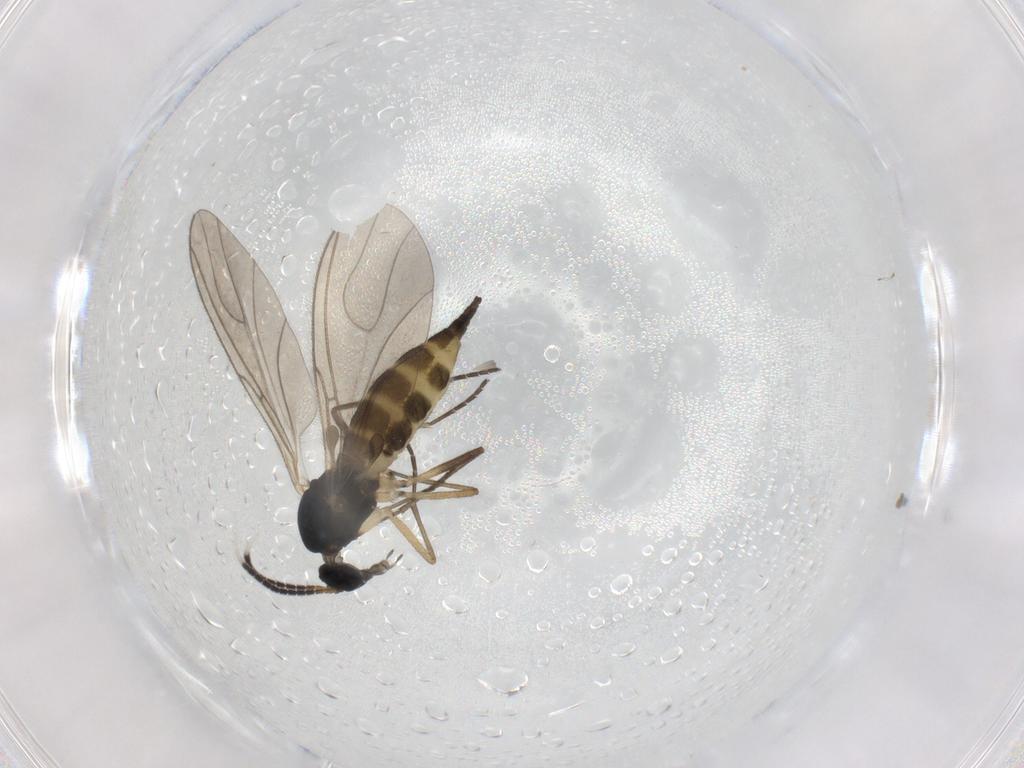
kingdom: Animalia
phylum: Arthropoda
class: Insecta
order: Diptera
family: Sciaridae
